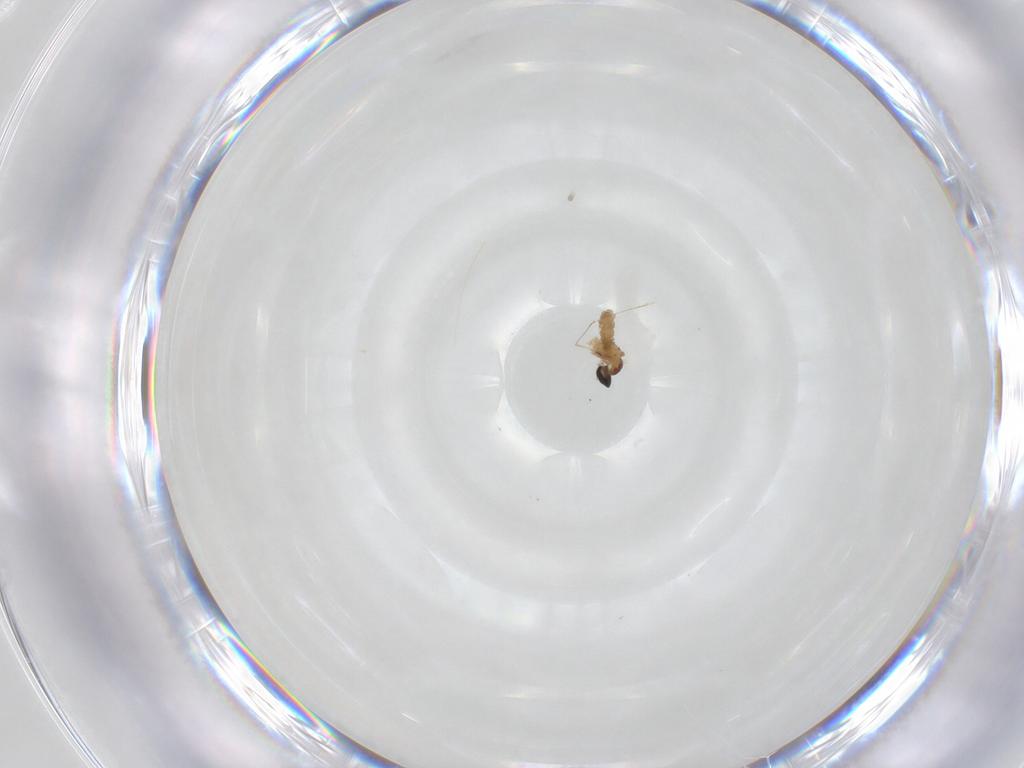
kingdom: Animalia
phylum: Arthropoda
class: Insecta
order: Diptera
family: Cecidomyiidae
